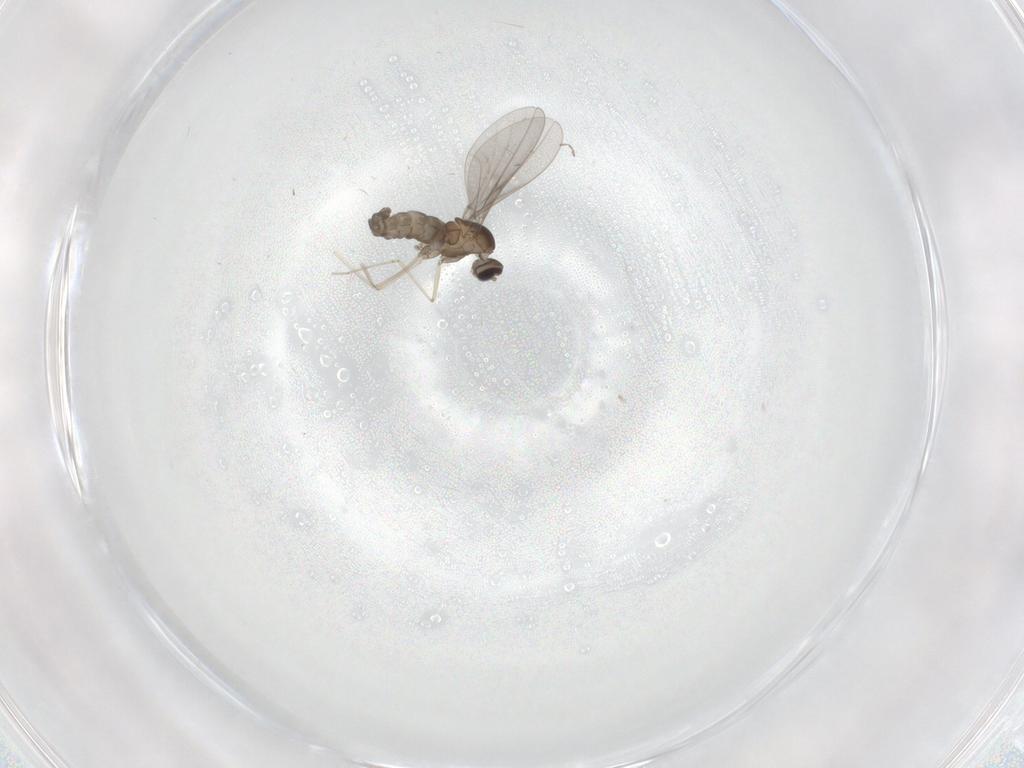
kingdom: Animalia
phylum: Arthropoda
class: Insecta
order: Diptera
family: Cecidomyiidae
